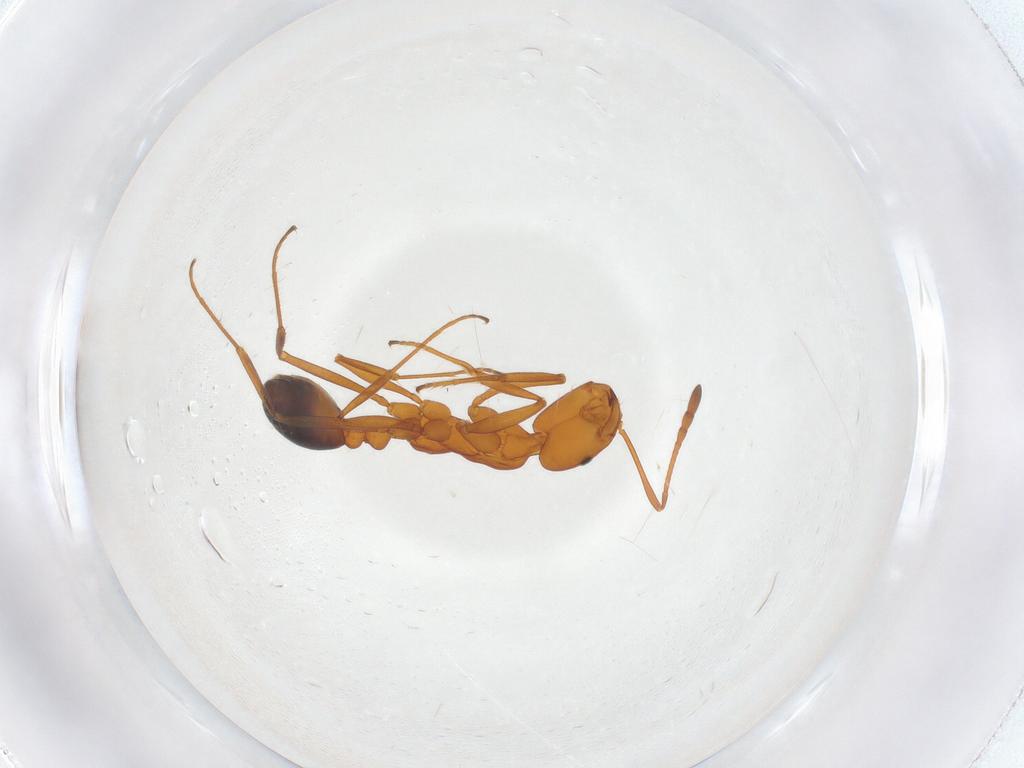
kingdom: Animalia
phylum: Arthropoda
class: Insecta
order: Hymenoptera
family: Formicidae
